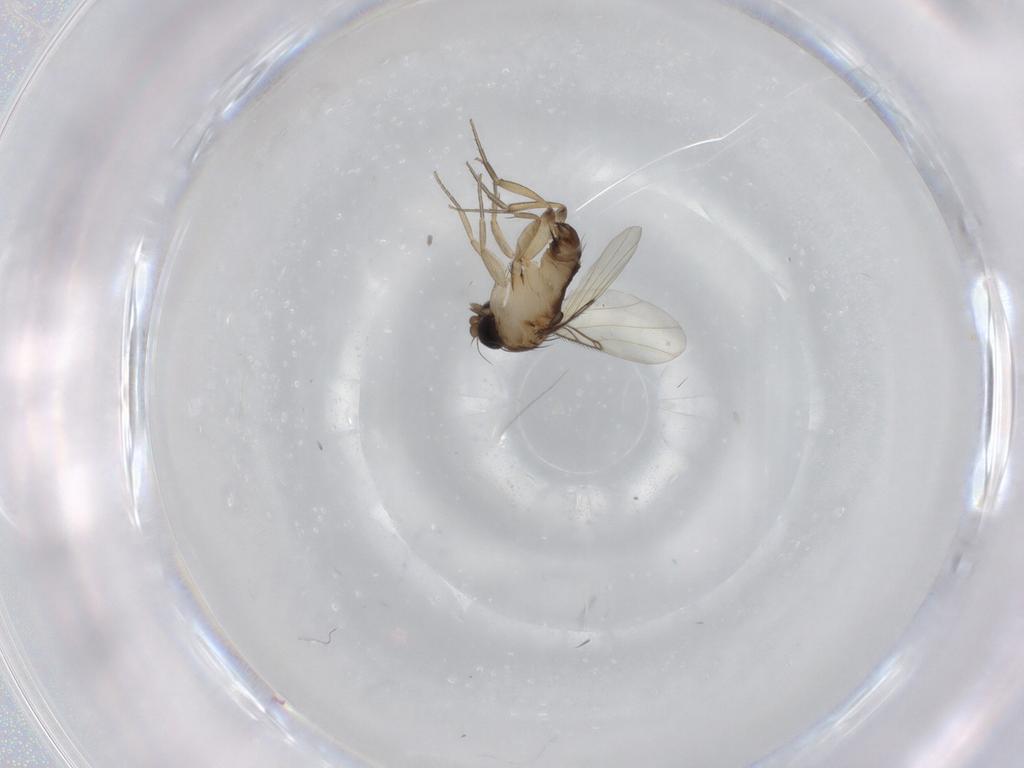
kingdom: Animalia
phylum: Arthropoda
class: Insecta
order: Diptera
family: Phoridae
